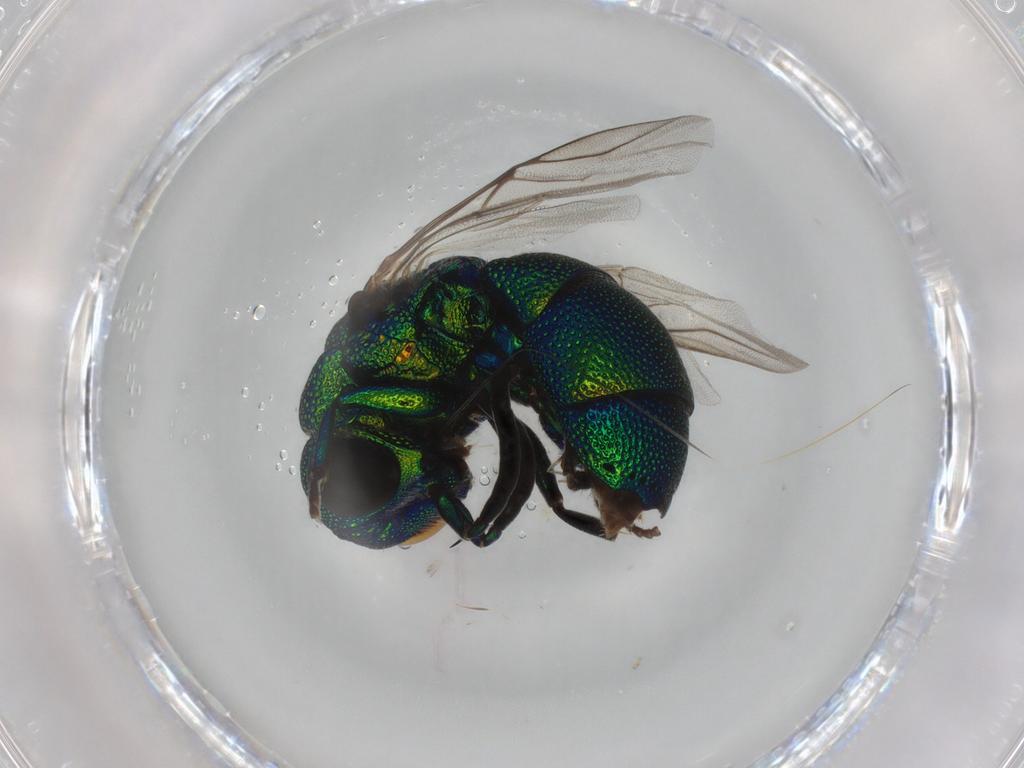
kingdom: Animalia
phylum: Arthropoda
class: Insecta
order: Hymenoptera
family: Chrysididae
